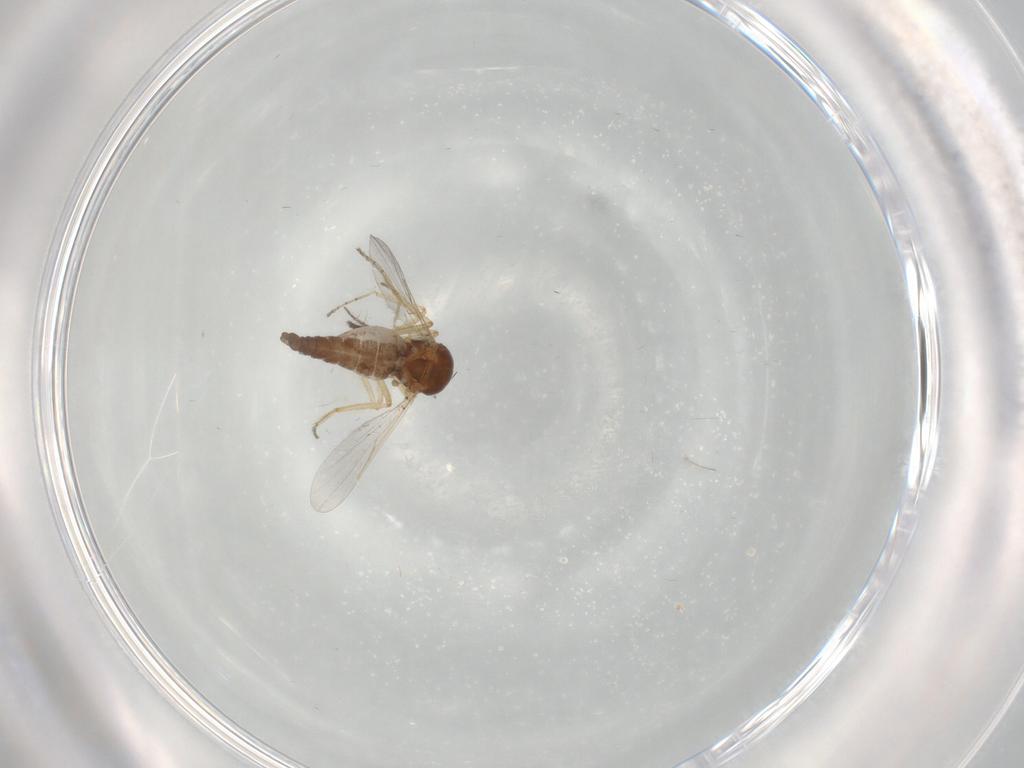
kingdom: Animalia
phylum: Arthropoda
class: Insecta
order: Diptera
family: Ceratopogonidae
